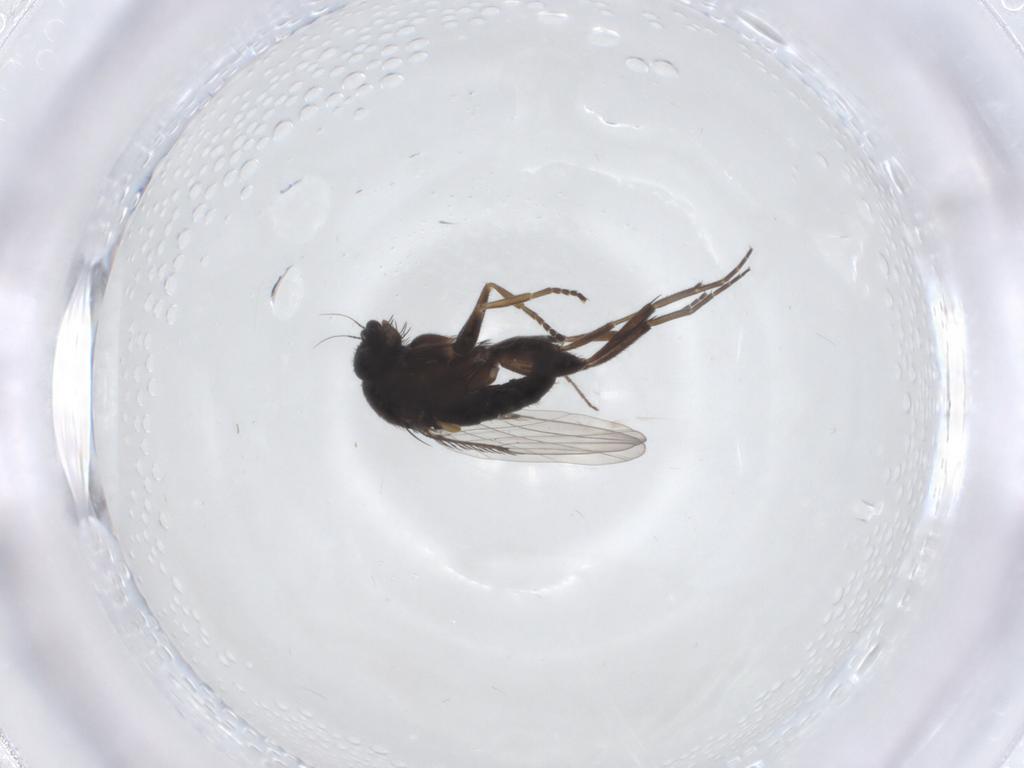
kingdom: Animalia
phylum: Arthropoda
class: Insecta
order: Diptera
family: Phoridae
